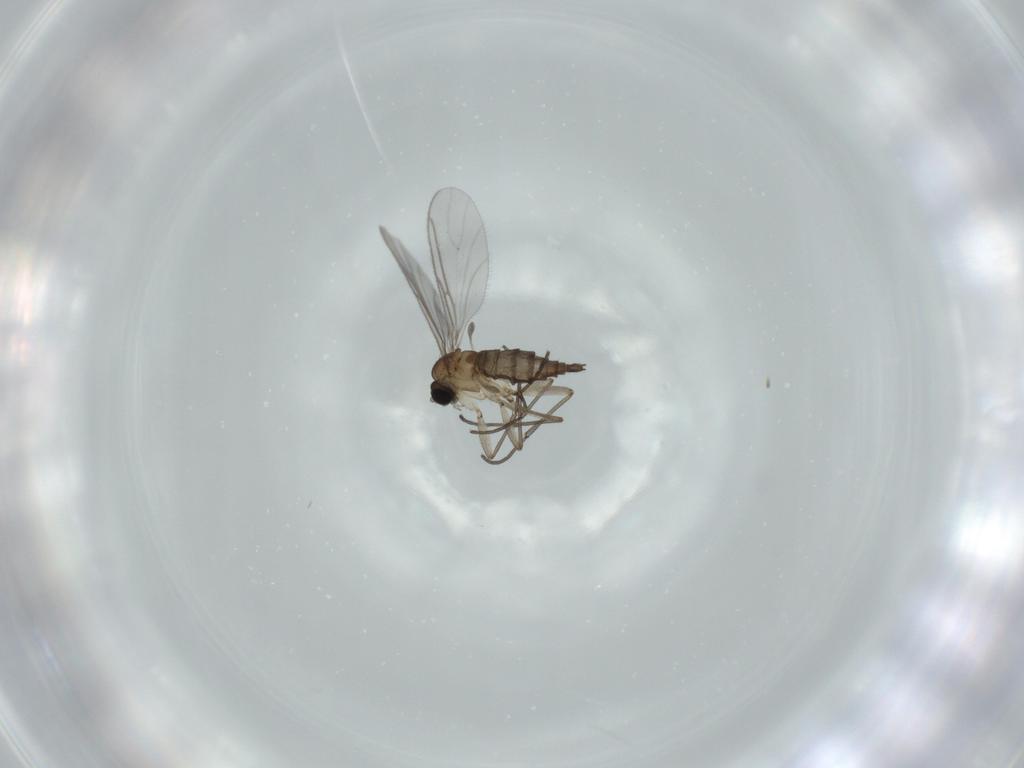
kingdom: Animalia
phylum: Arthropoda
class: Insecta
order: Diptera
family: Sciaridae
